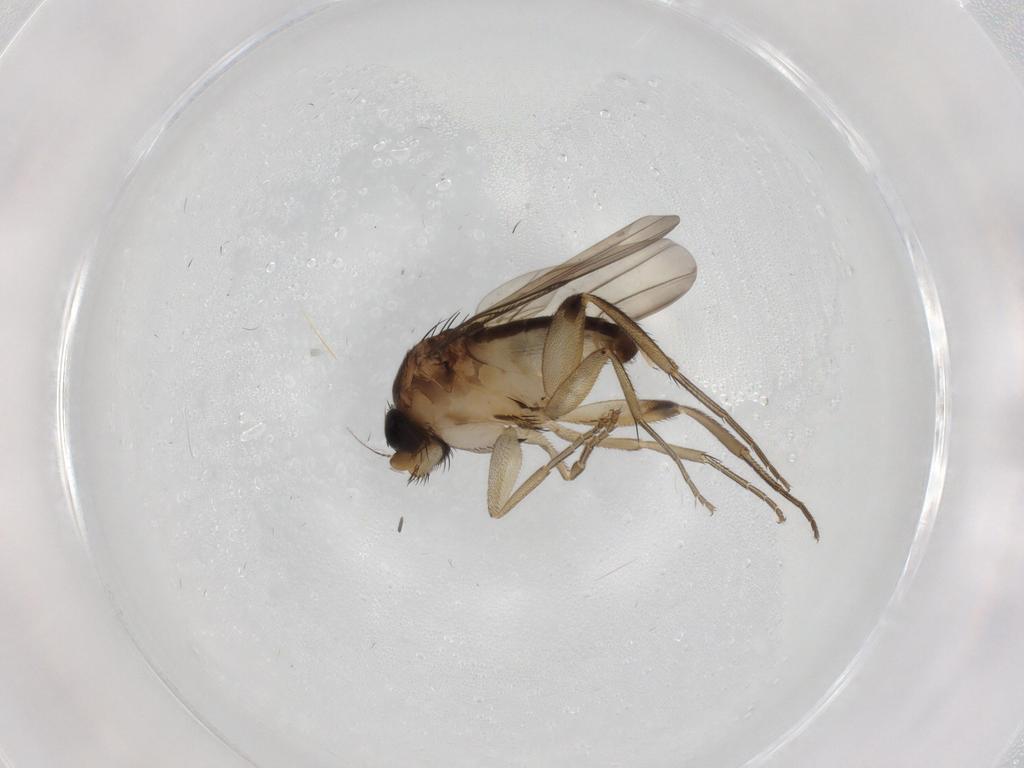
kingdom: Animalia
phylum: Arthropoda
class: Insecta
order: Diptera
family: Phoridae
